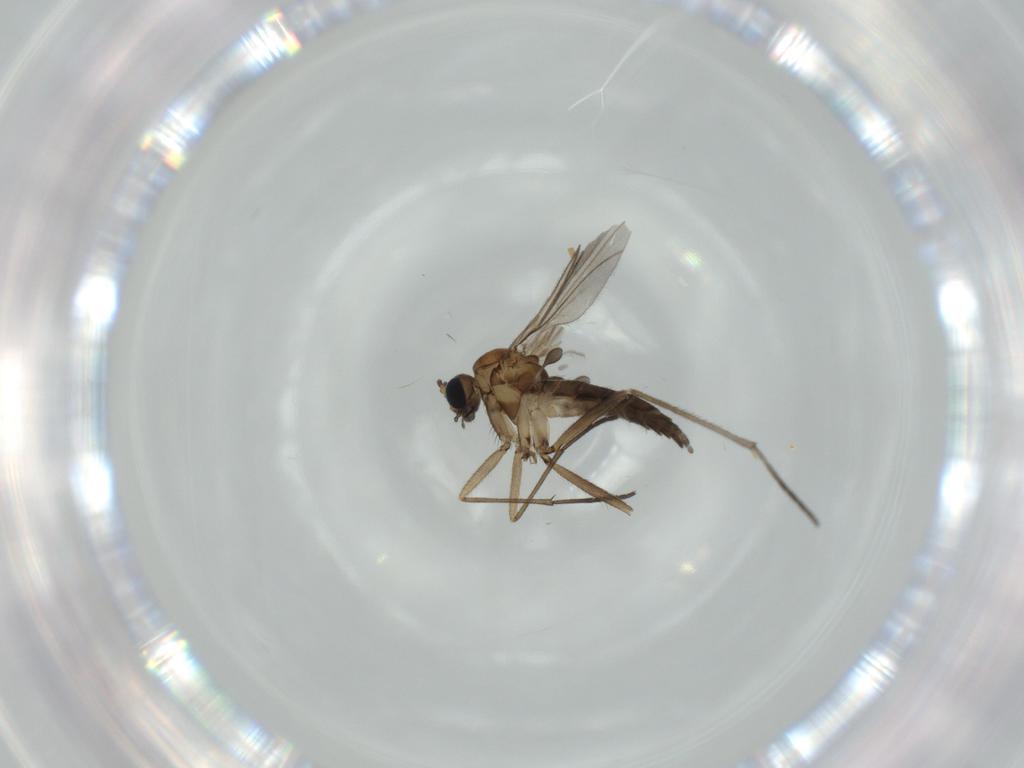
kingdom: Animalia
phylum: Arthropoda
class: Insecta
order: Diptera
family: Sciaridae
